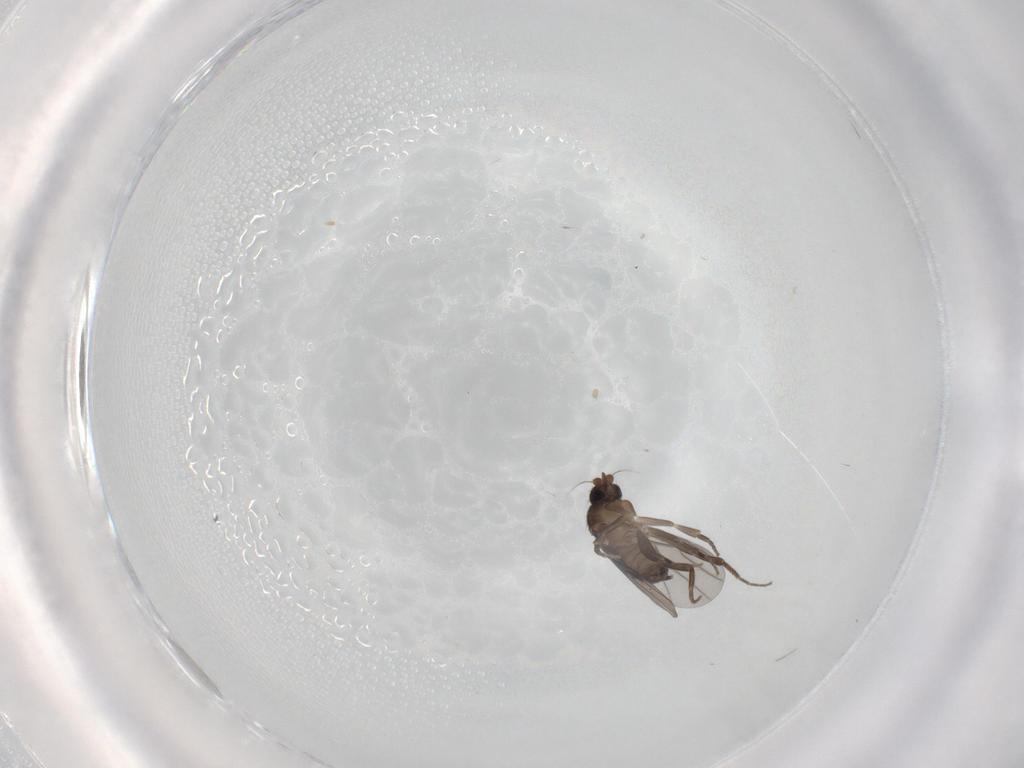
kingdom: Animalia
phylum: Arthropoda
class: Insecta
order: Diptera
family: Phoridae
